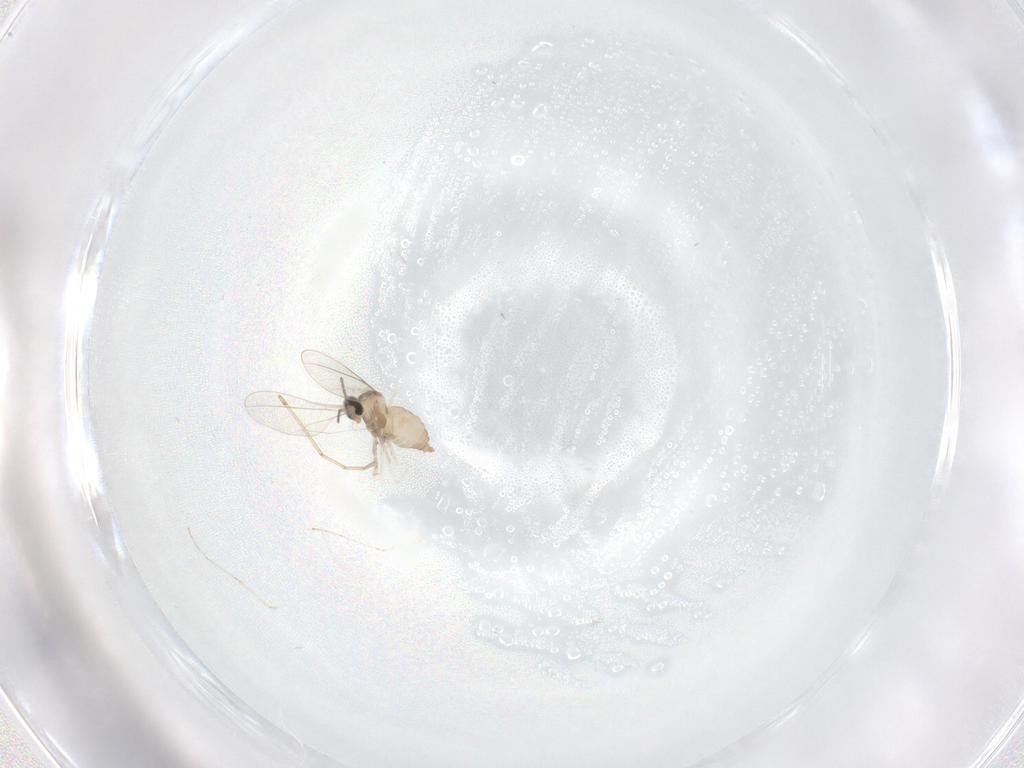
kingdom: Animalia
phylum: Arthropoda
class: Insecta
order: Diptera
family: Cecidomyiidae
